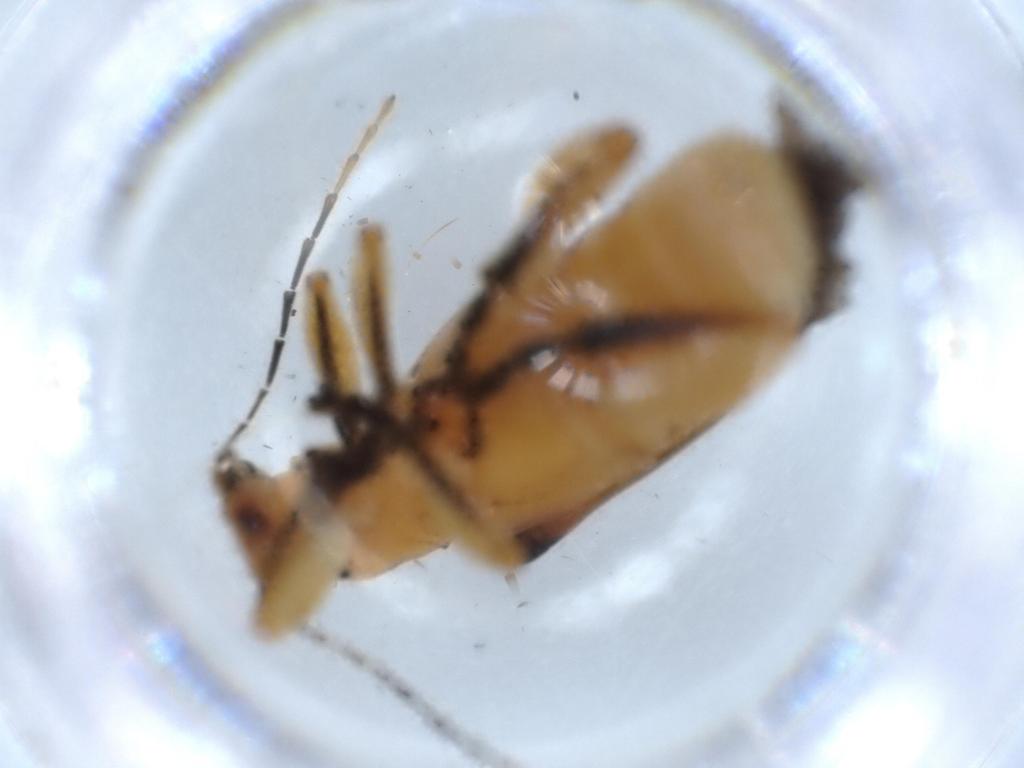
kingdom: Animalia
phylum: Arthropoda
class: Insecta
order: Coleoptera
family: Chrysomelidae
